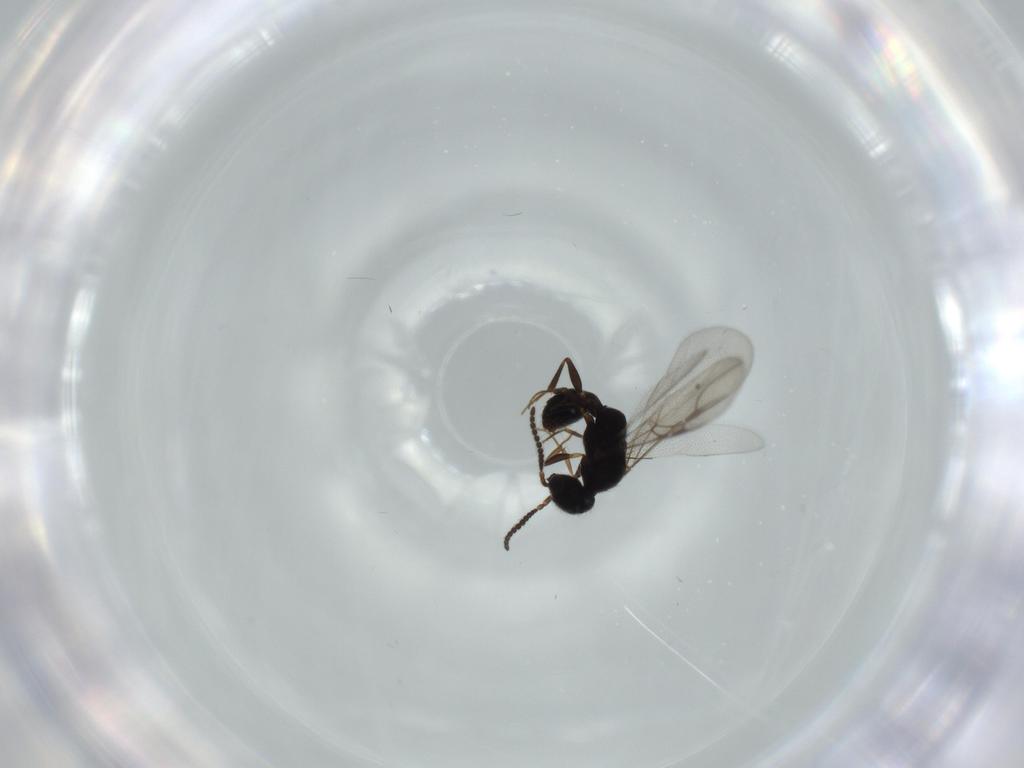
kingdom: Animalia
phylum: Arthropoda
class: Insecta
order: Hymenoptera
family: Bethylidae
